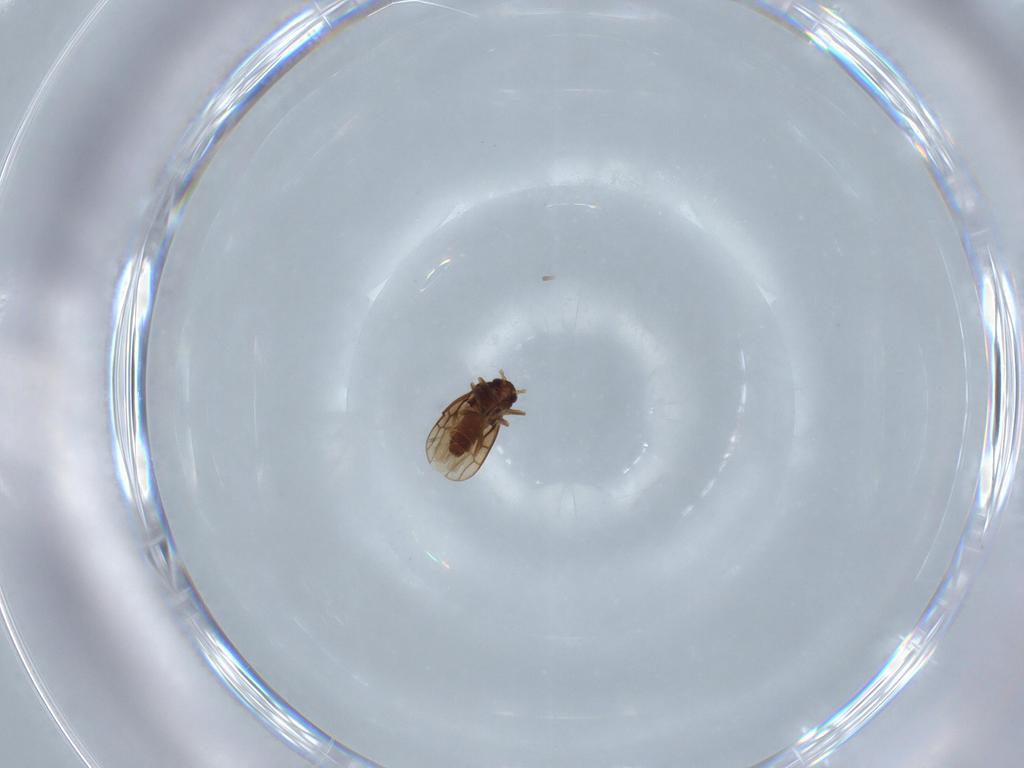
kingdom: Animalia
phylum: Arthropoda
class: Insecta
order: Hemiptera
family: Schizopteridae
